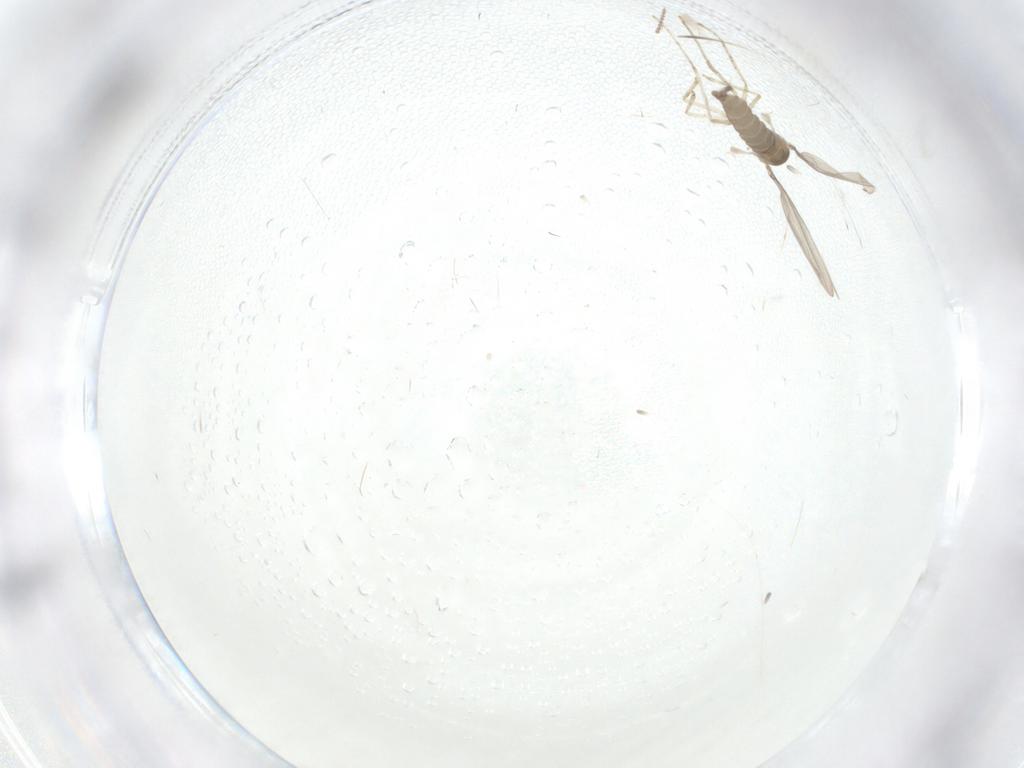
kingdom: Animalia
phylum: Arthropoda
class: Insecta
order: Diptera
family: Cecidomyiidae
